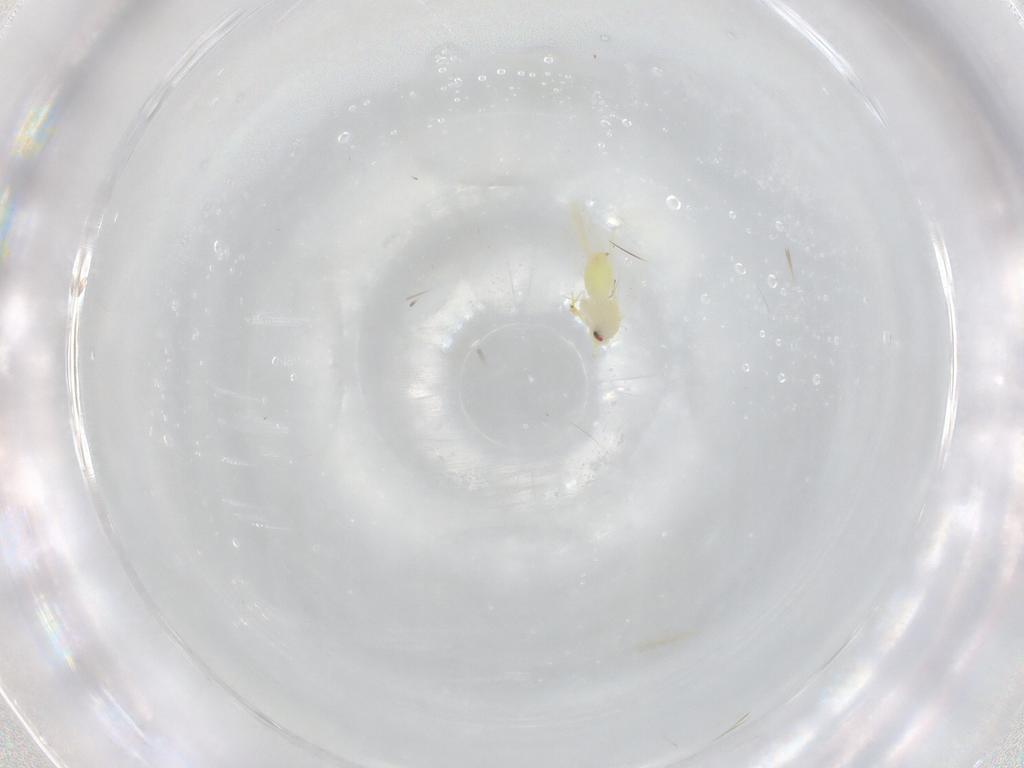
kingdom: Animalia
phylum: Arthropoda
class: Insecta
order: Hemiptera
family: Aleyrodidae
